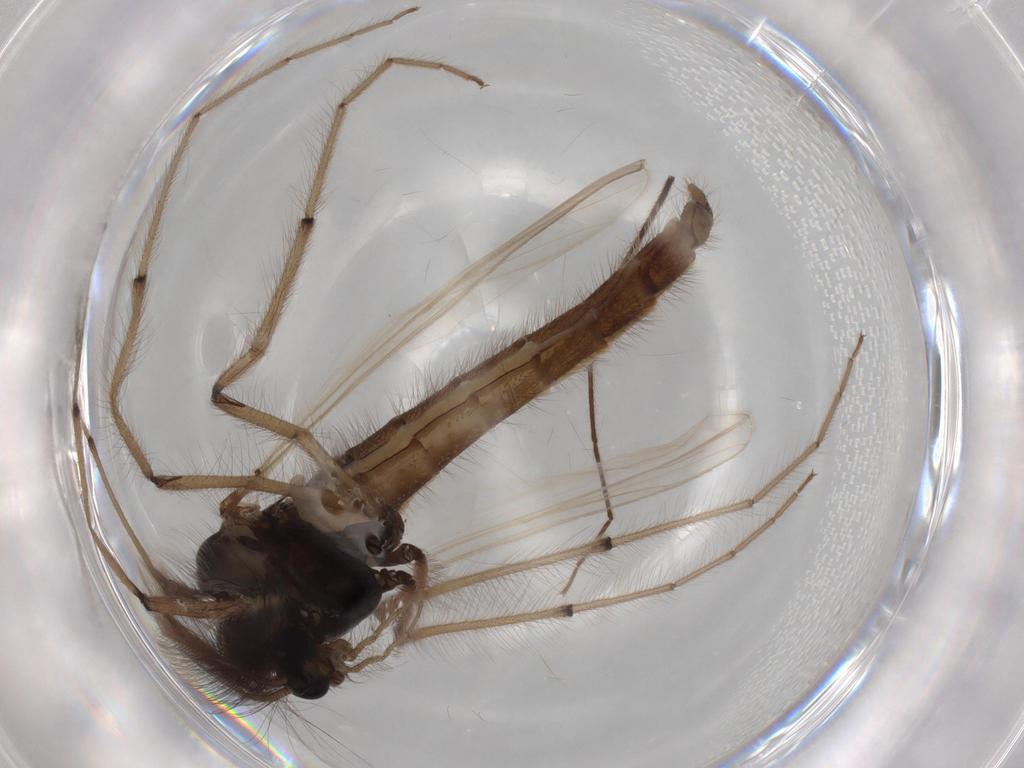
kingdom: Animalia
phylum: Arthropoda
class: Insecta
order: Diptera
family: Chironomidae
